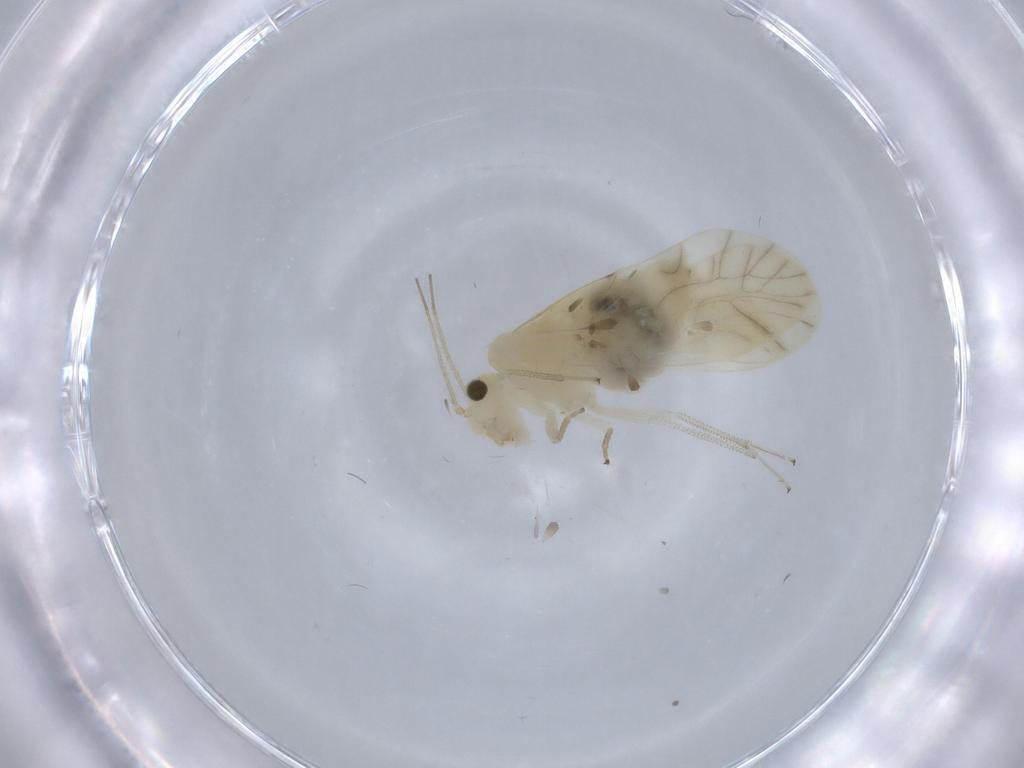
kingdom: Animalia
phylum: Arthropoda
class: Insecta
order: Psocodea
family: Caeciliusidae
